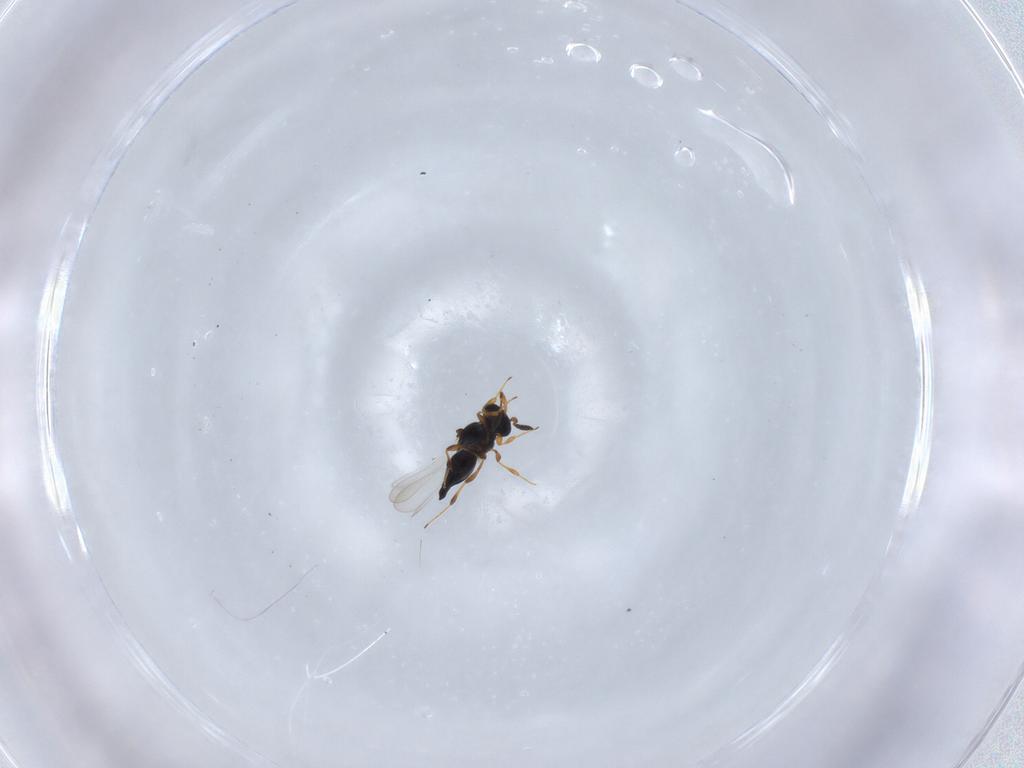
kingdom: Animalia
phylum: Arthropoda
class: Insecta
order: Hymenoptera
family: Platygastridae
